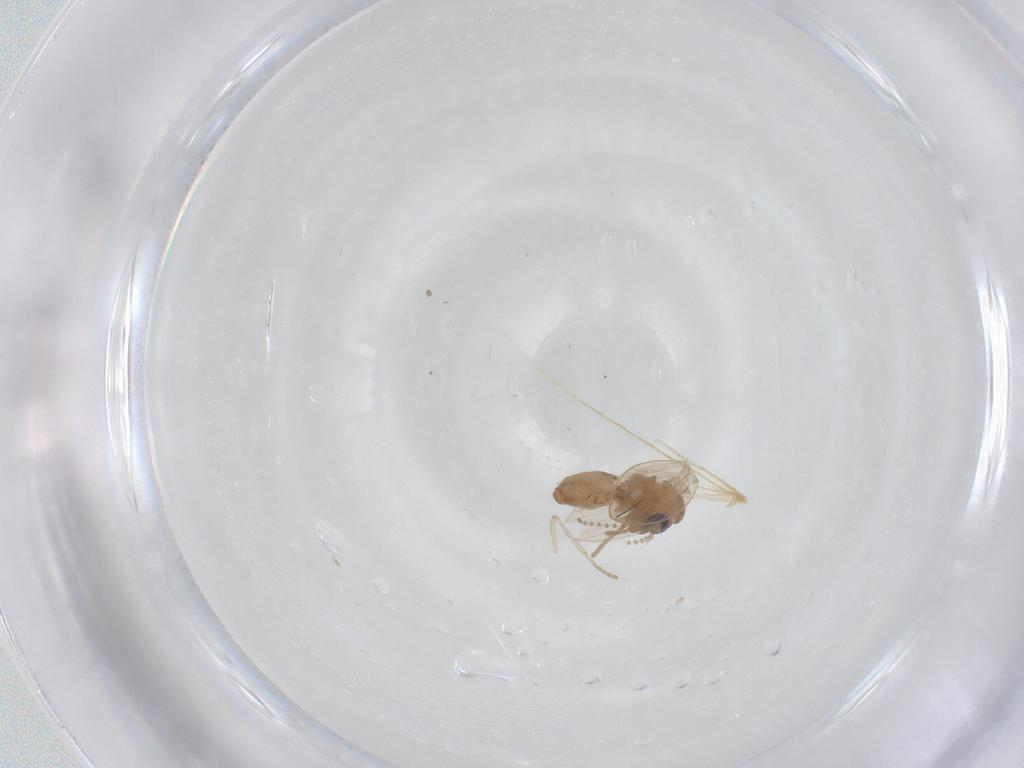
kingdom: Animalia
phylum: Arthropoda
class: Insecta
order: Diptera
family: Psychodidae
